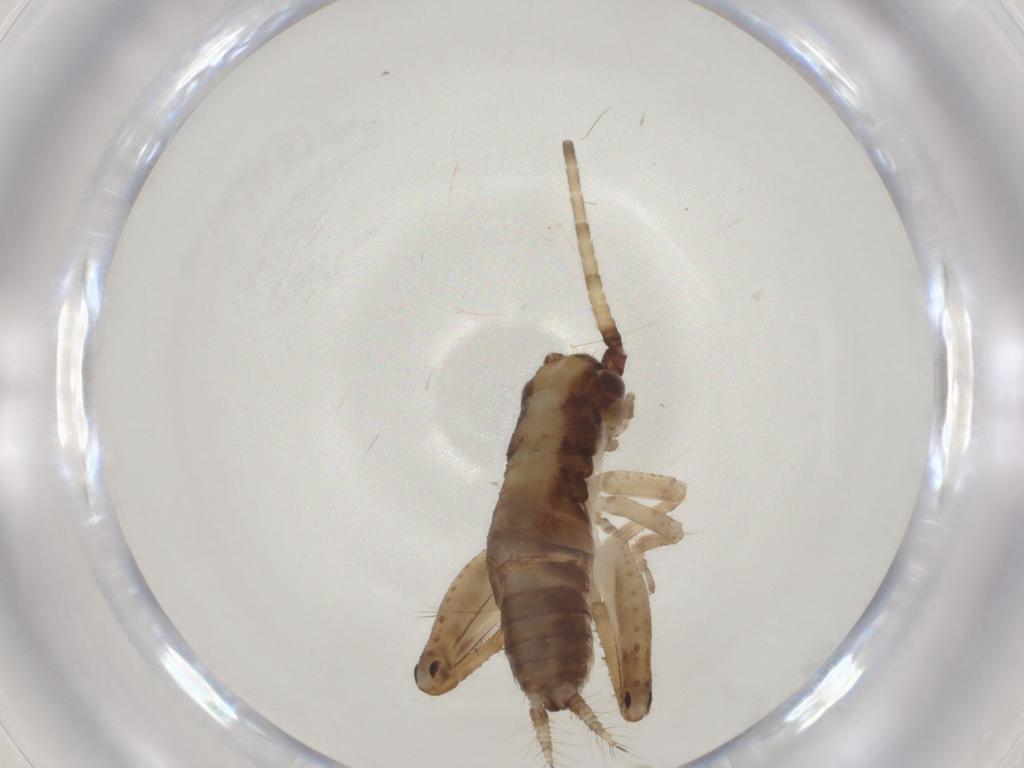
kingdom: Animalia
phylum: Arthropoda
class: Insecta
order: Orthoptera
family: Gryllidae
